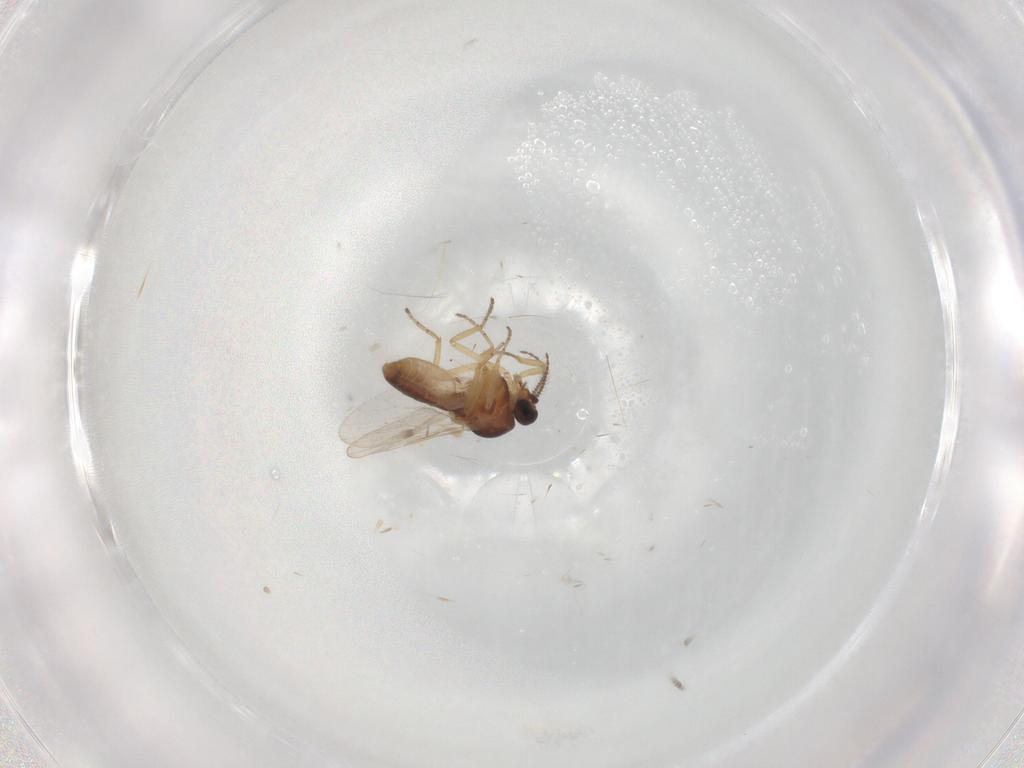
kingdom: Animalia
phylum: Arthropoda
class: Insecta
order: Diptera
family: Ceratopogonidae
